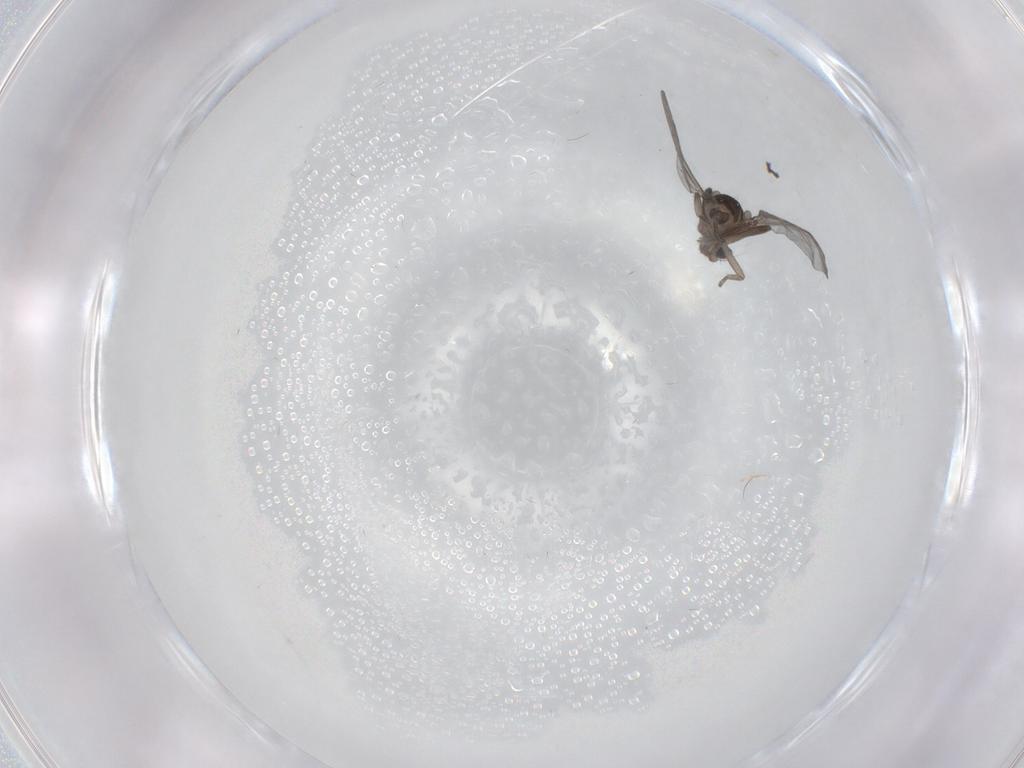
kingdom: Animalia
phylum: Arthropoda
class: Insecta
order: Diptera
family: Phoridae
